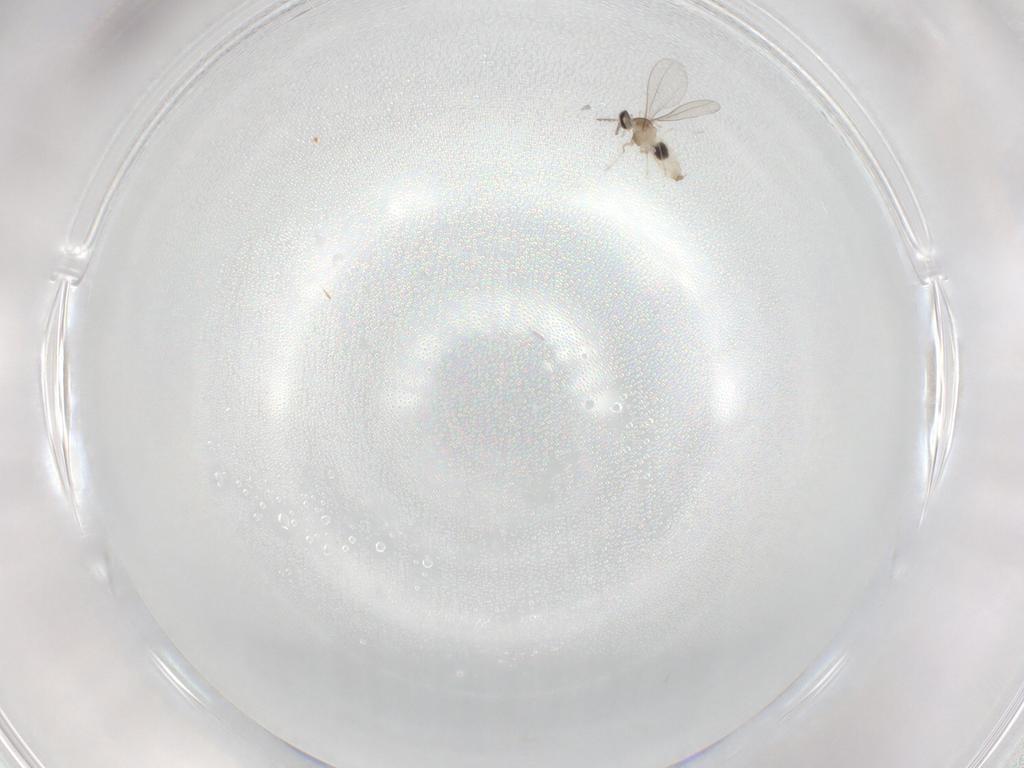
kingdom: Animalia
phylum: Arthropoda
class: Insecta
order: Diptera
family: Cecidomyiidae
